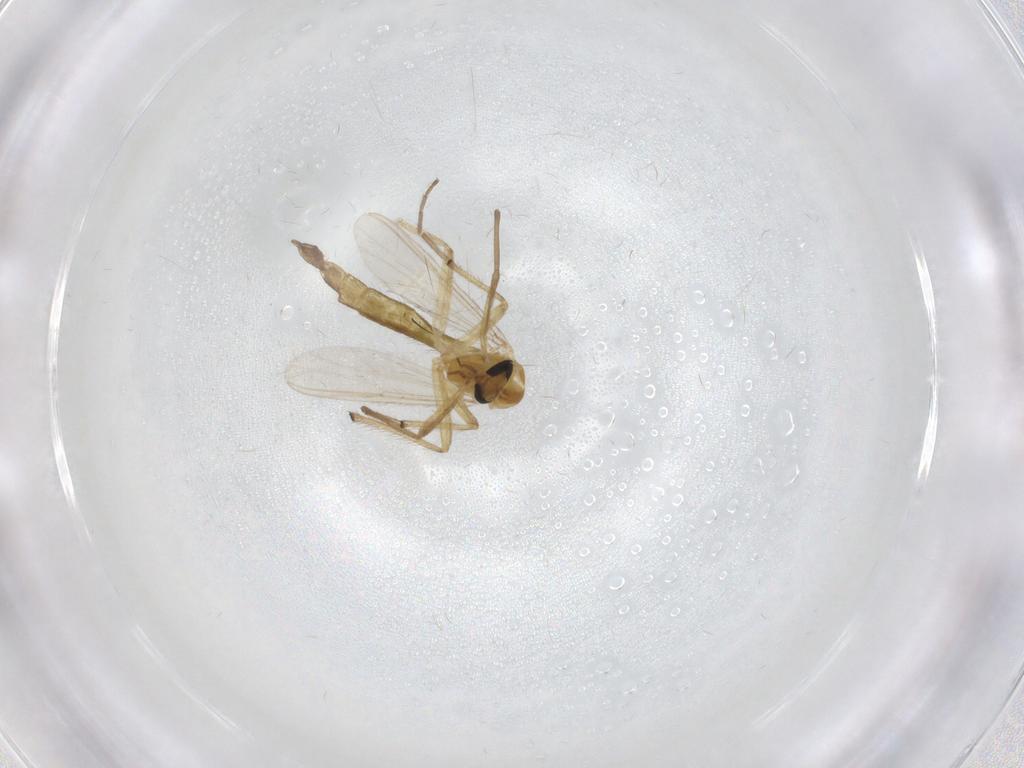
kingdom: Animalia
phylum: Arthropoda
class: Insecta
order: Diptera
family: Chironomidae
